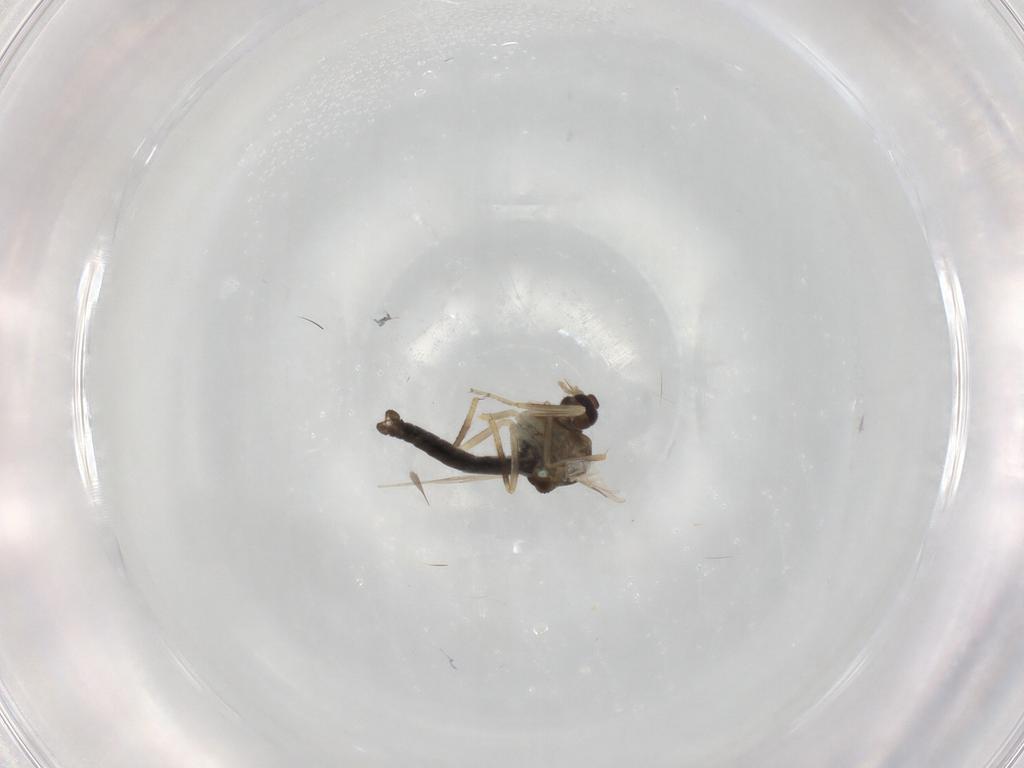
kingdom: Animalia
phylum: Arthropoda
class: Insecta
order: Diptera
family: Ceratopogonidae
